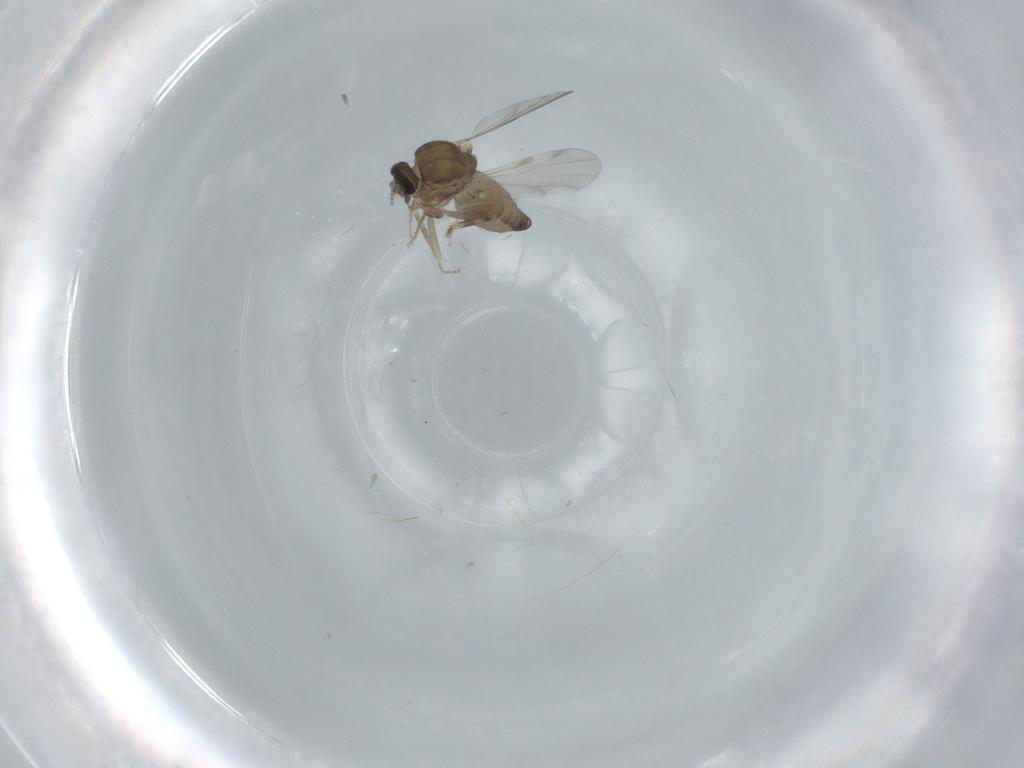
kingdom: Animalia
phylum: Arthropoda
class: Insecta
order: Diptera
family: Ceratopogonidae
